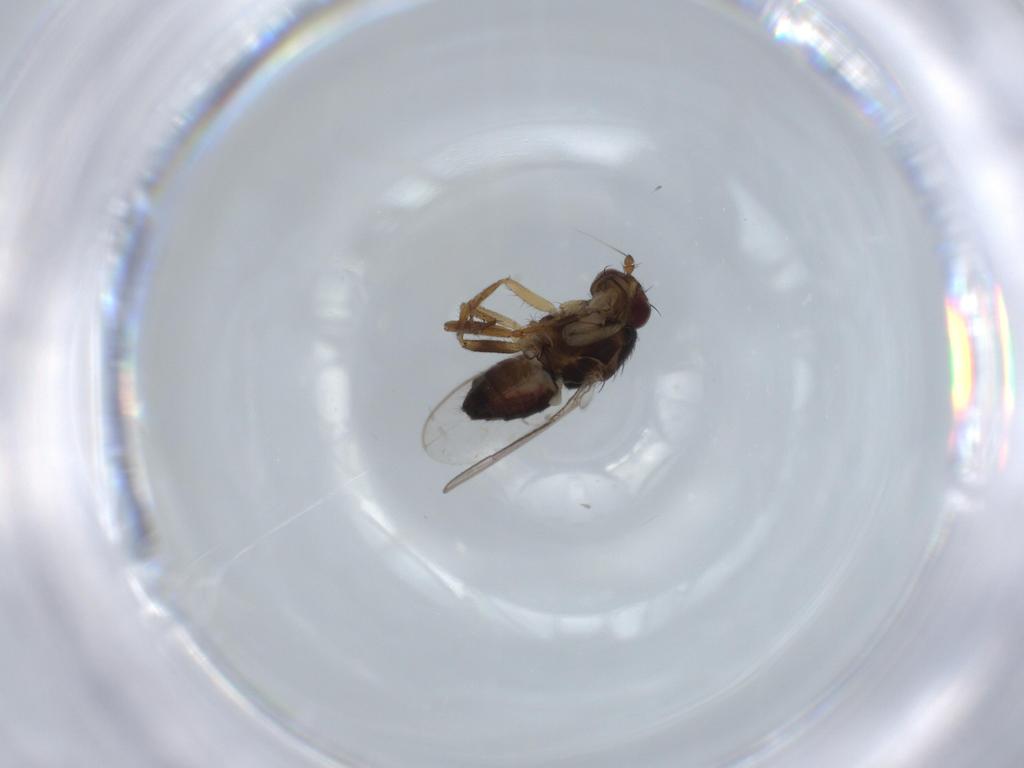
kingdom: Animalia
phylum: Arthropoda
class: Insecta
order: Diptera
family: Sphaeroceridae
